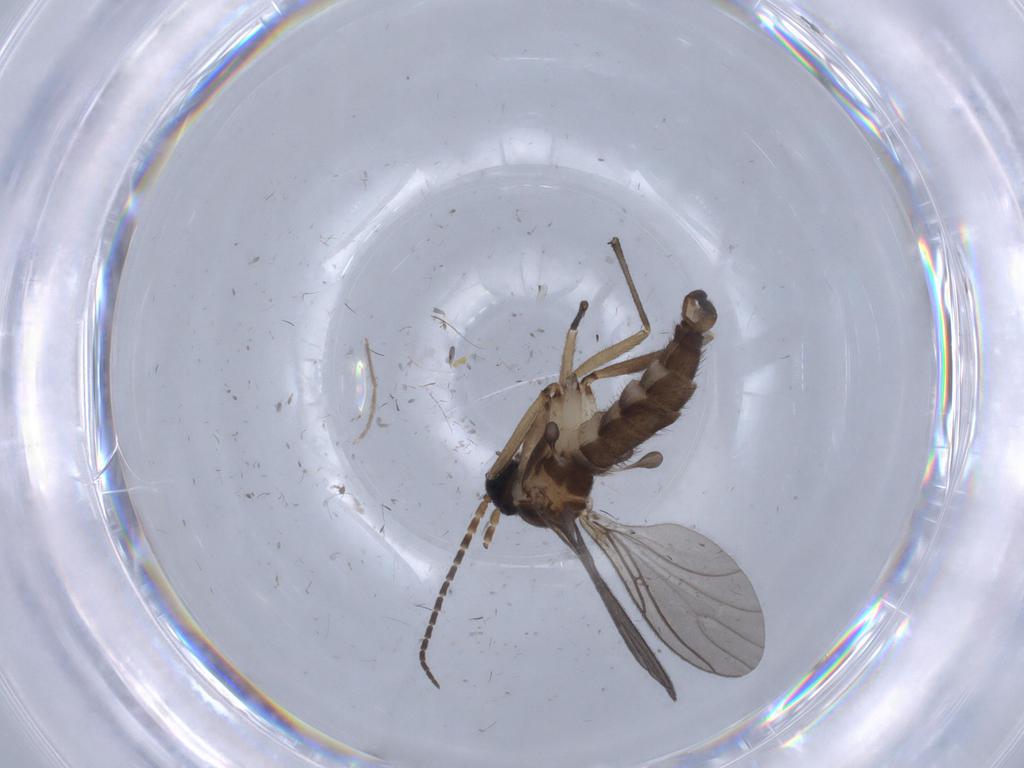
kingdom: Animalia
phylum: Arthropoda
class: Insecta
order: Diptera
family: Sciaridae
